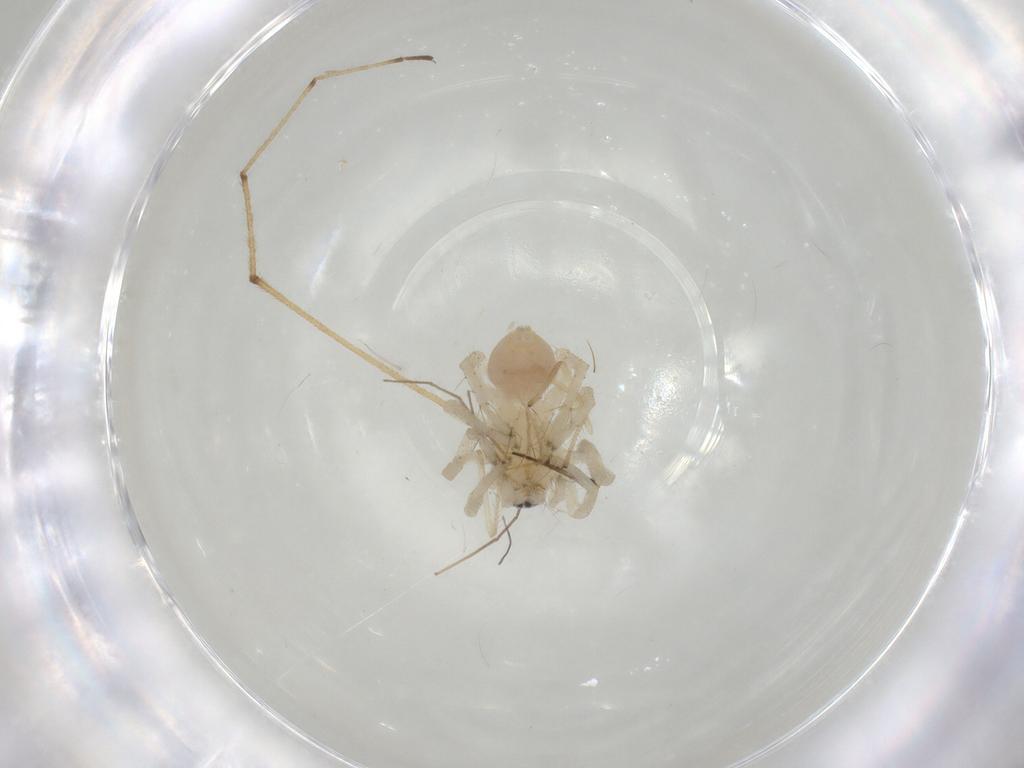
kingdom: Animalia
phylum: Arthropoda
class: Arachnida
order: Araneae
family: Clubionidae
